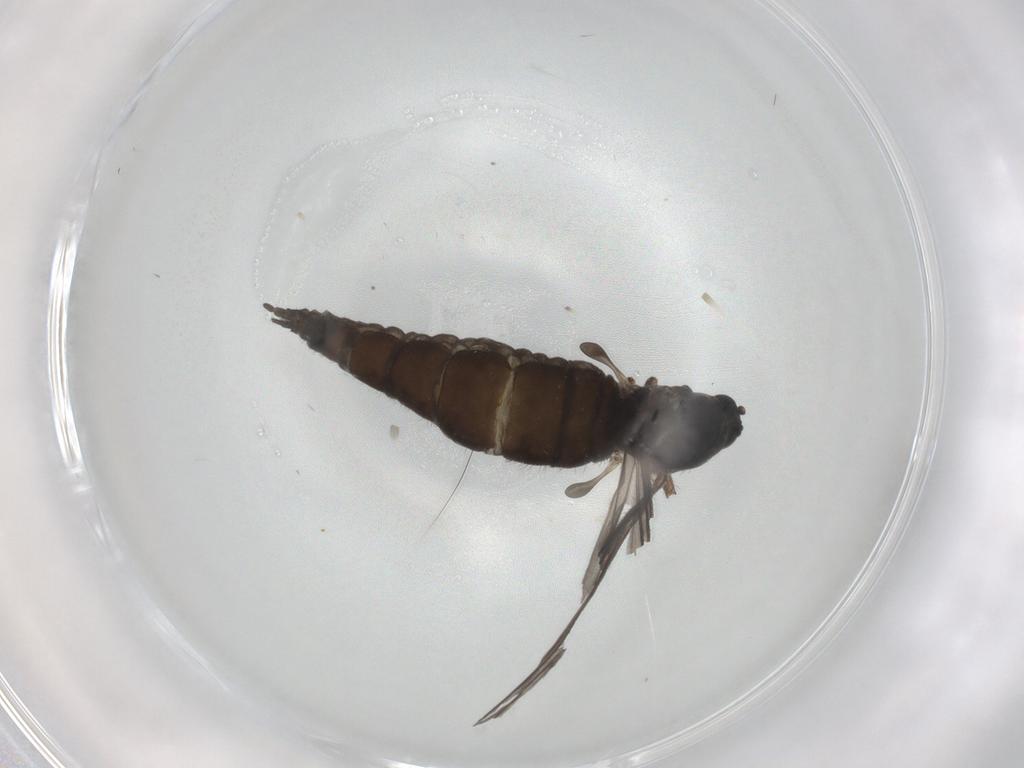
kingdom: Animalia
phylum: Arthropoda
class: Insecta
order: Diptera
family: Sciaridae
